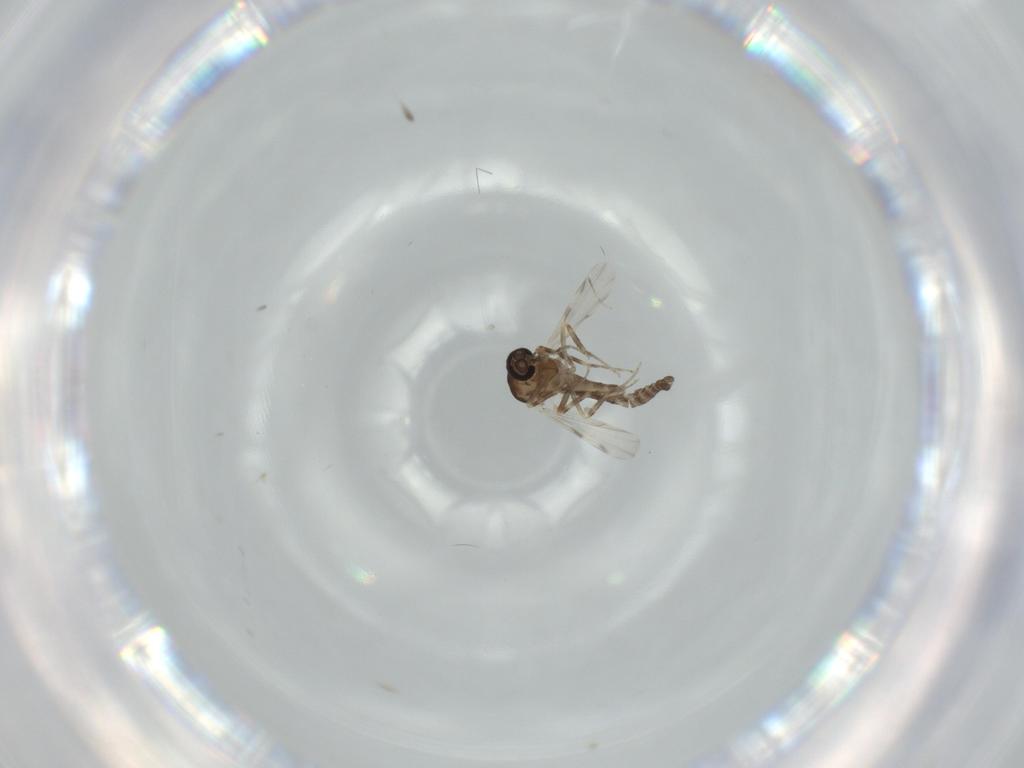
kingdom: Animalia
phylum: Arthropoda
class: Insecta
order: Diptera
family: Ceratopogonidae
